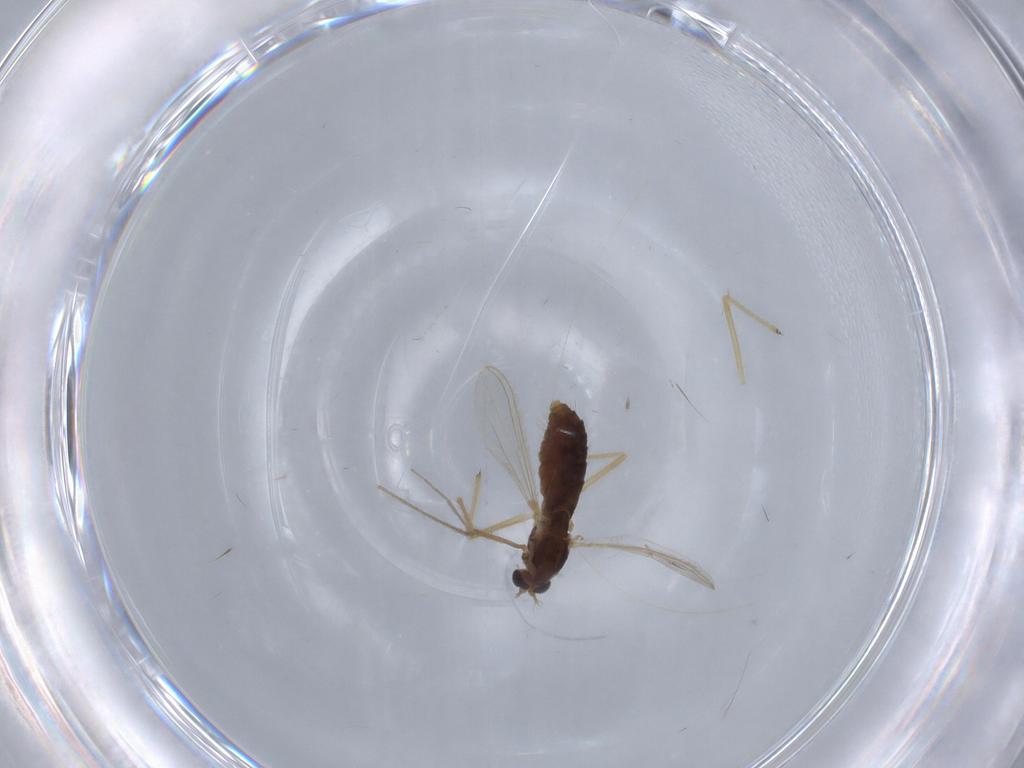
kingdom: Animalia
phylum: Arthropoda
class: Insecta
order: Diptera
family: Chironomidae
